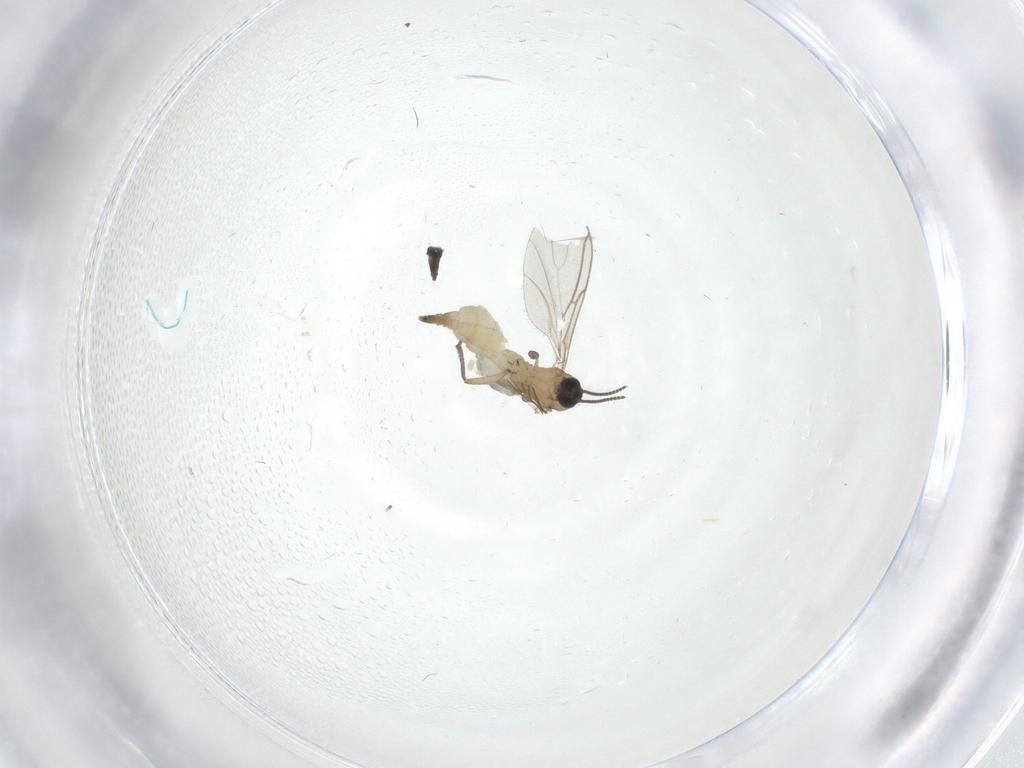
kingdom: Animalia
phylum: Arthropoda
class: Insecta
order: Diptera
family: Sciaridae
